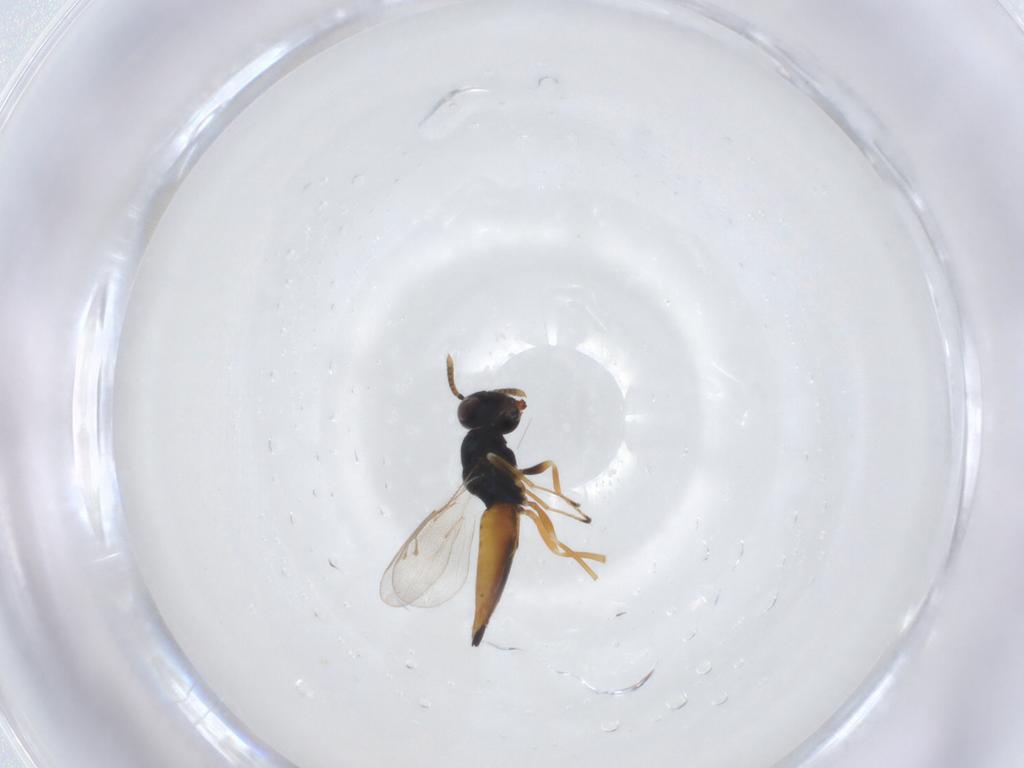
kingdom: Animalia
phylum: Arthropoda
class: Insecta
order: Hymenoptera
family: Pteromalidae
